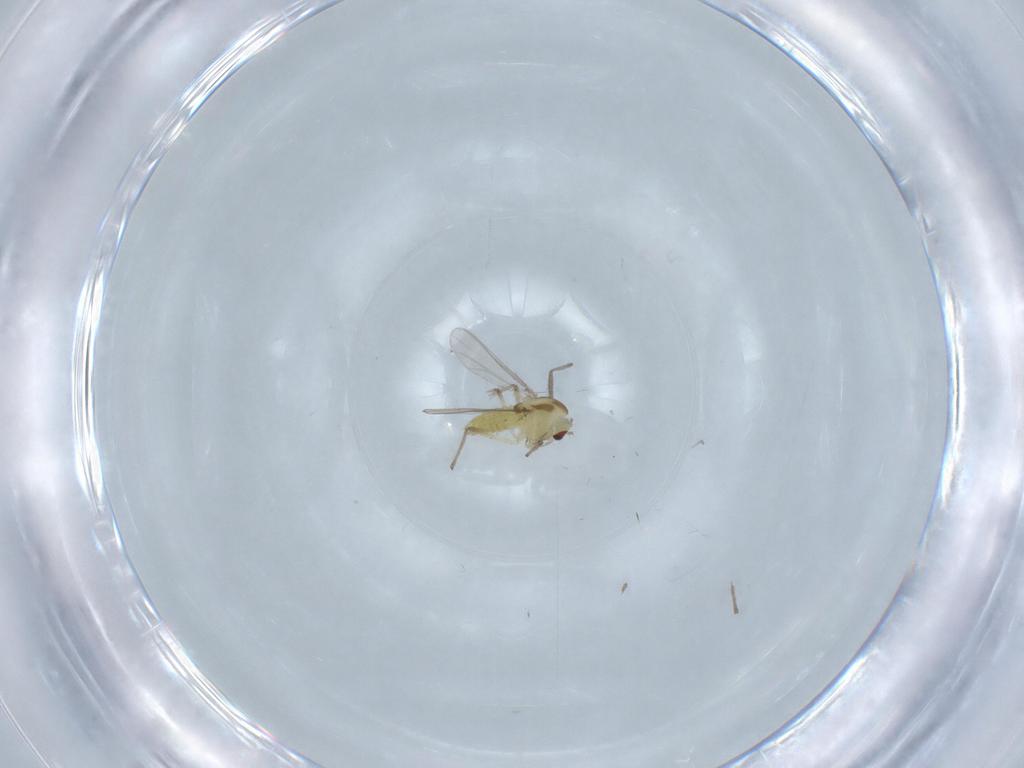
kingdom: Animalia
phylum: Arthropoda
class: Insecta
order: Diptera
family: Chironomidae
